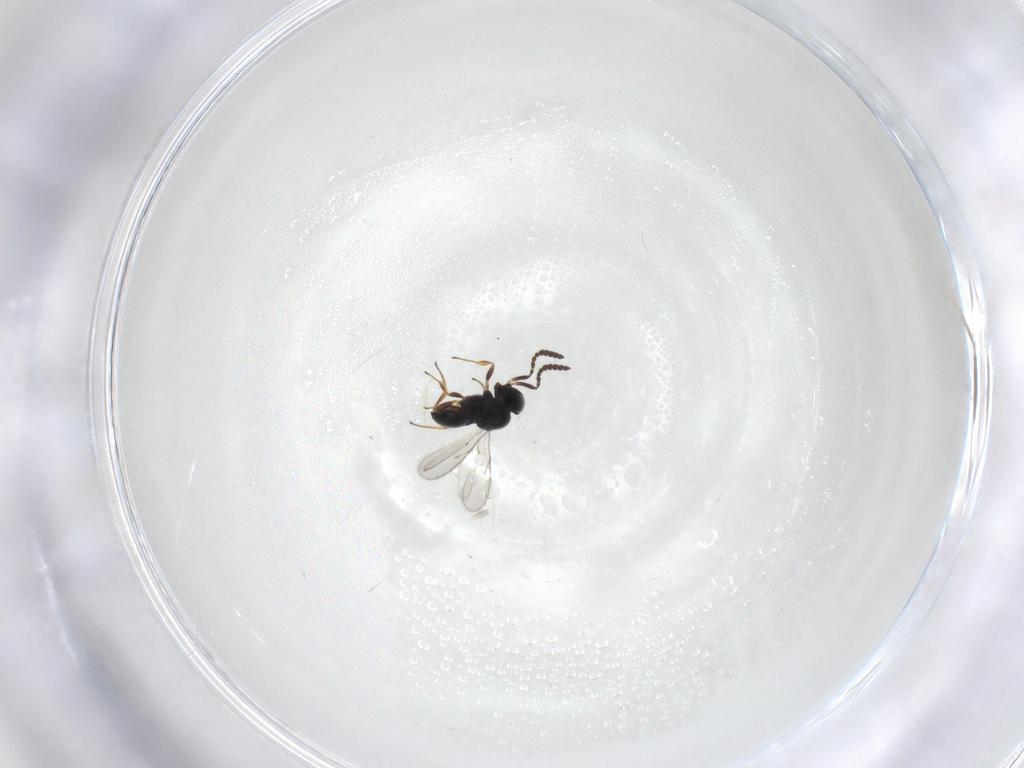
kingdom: Animalia
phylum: Arthropoda
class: Insecta
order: Hymenoptera
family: Scelionidae
